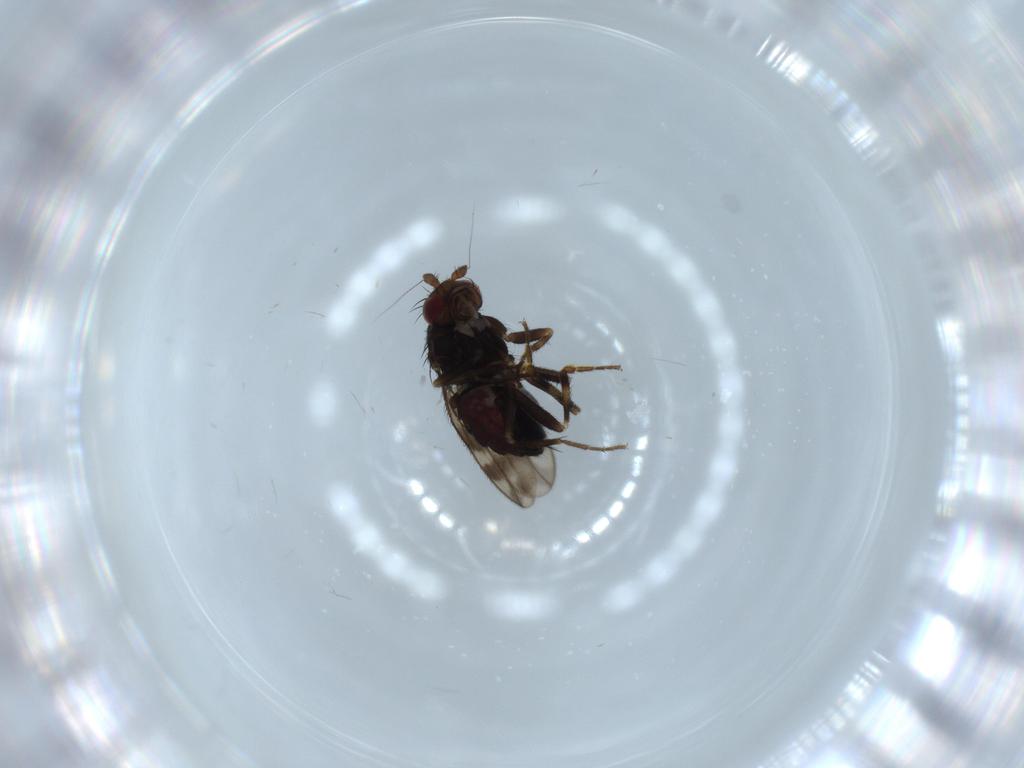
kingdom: Animalia
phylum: Arthropoda
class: Insecta
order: Diptera
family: Sphaeroceridae
